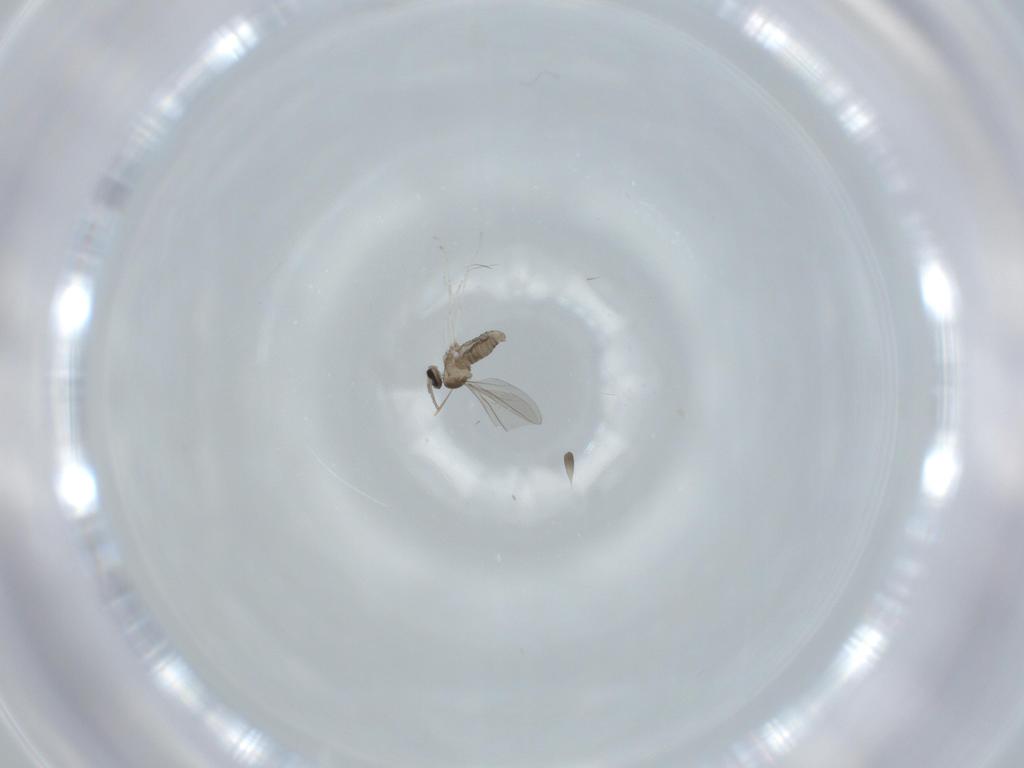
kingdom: Animalia
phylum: Arthropoda
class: Insecta
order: Diptera
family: Cecidomyiidae
